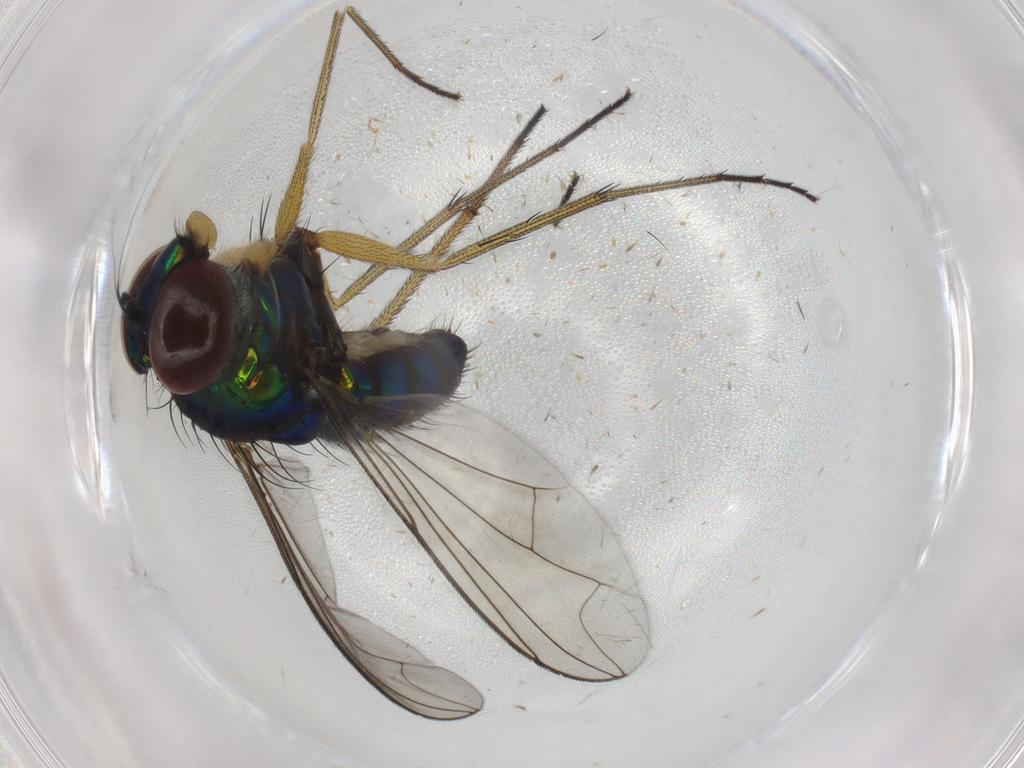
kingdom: Animalia
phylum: Arthropoda
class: Insecta
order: Diptera
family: Dolichopodidae
